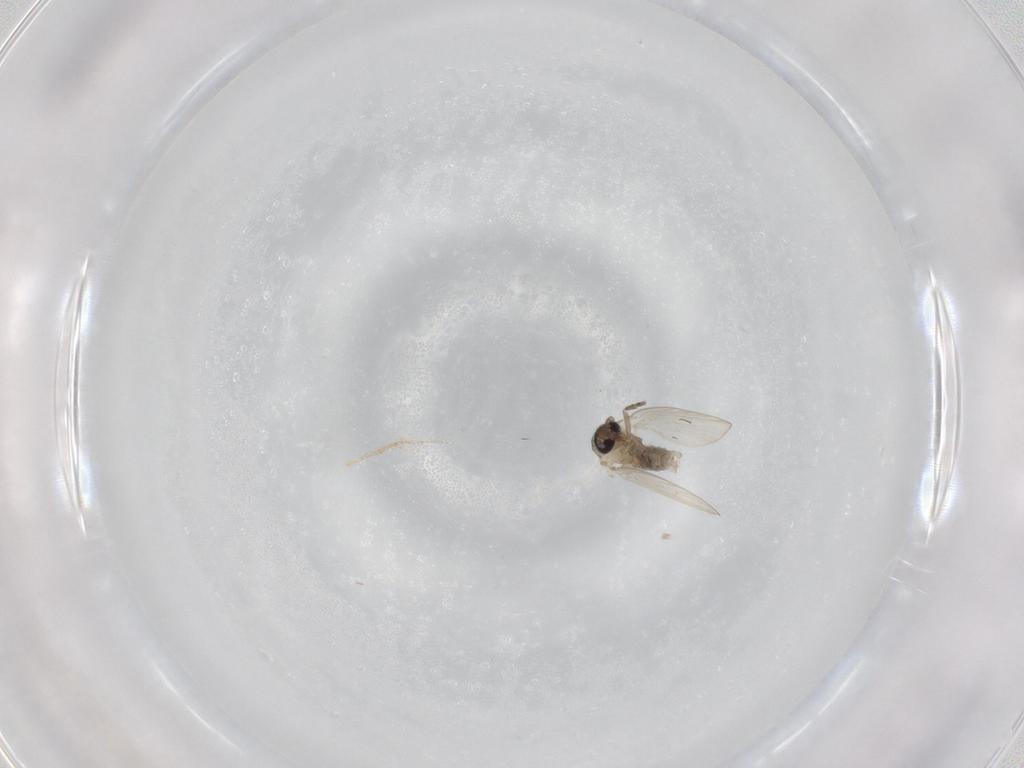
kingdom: Animalia
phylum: Arthropoda
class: Insecta
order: Diptera
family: Psychodidae
